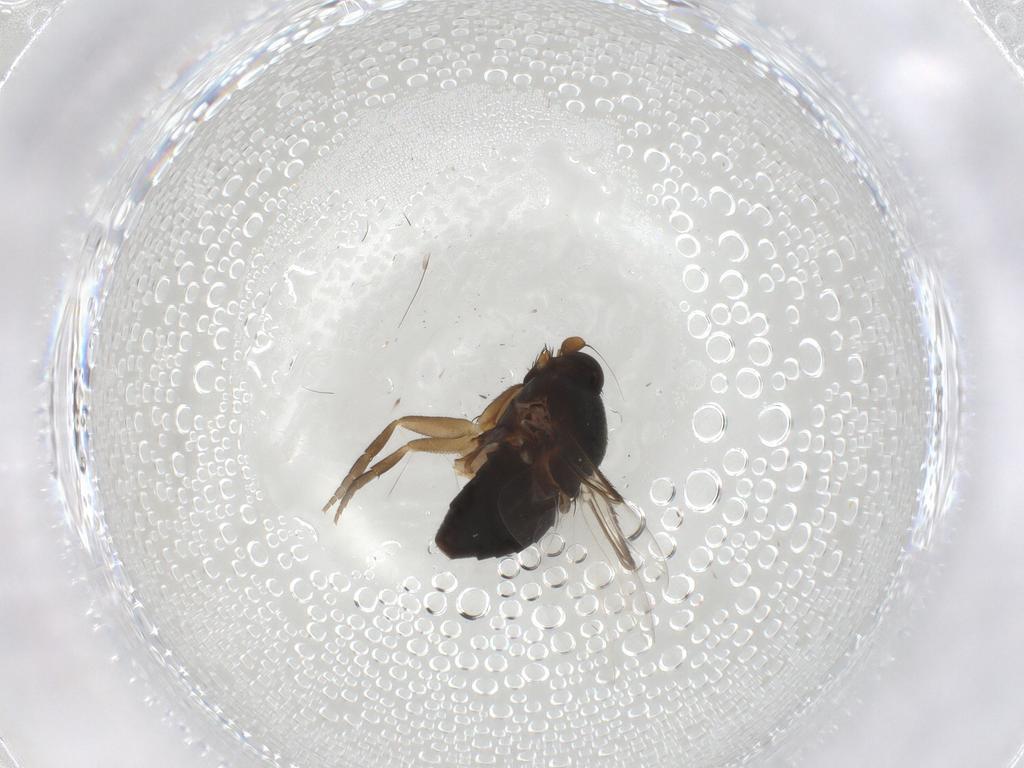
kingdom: Animalia
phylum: Arthropoda
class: Insecta
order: Diptera
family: Phoridae
